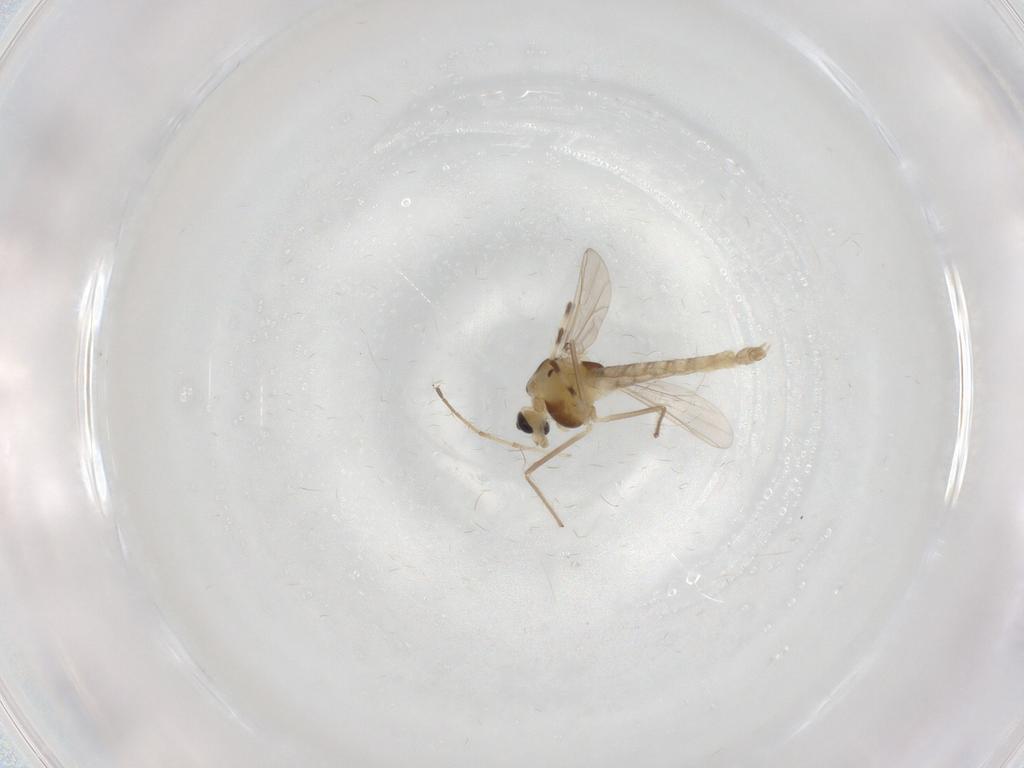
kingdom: Animalia
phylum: Arthropoda
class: Insecta
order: Diptera
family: Chironomidae
